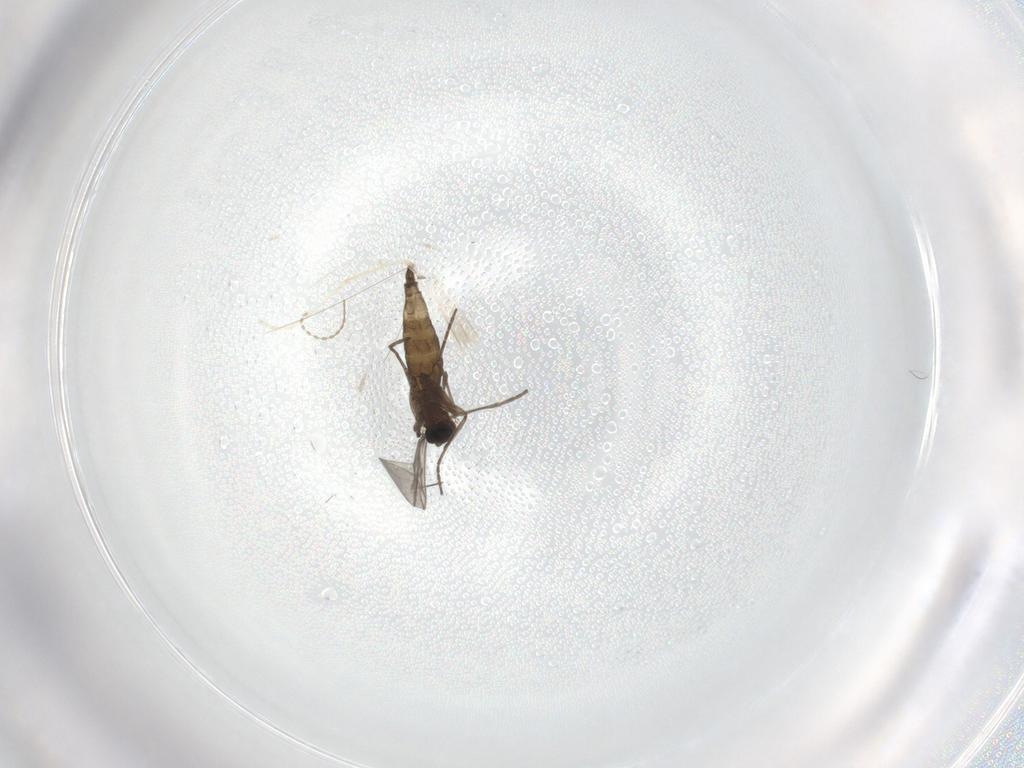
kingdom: Animalia
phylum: Arthropoda
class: Insecta
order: Diptera
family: Cecidomyiidae
